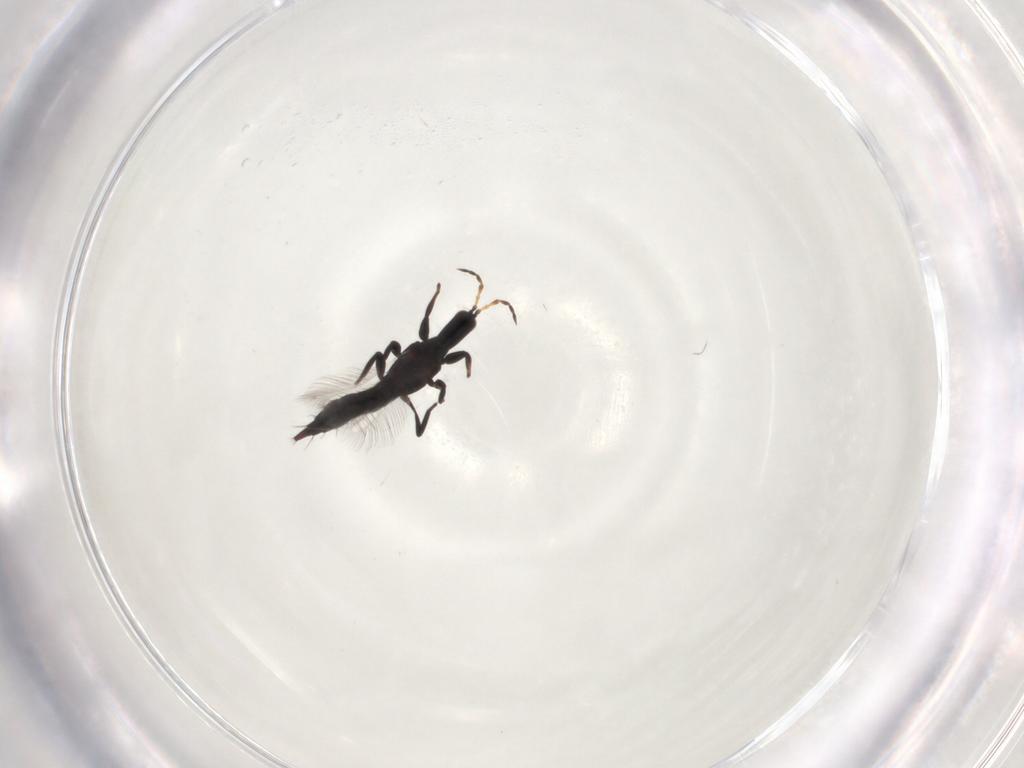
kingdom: Animalia
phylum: Arthropoda
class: Insecta
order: Thysanoptera
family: Phlaeothripidae
